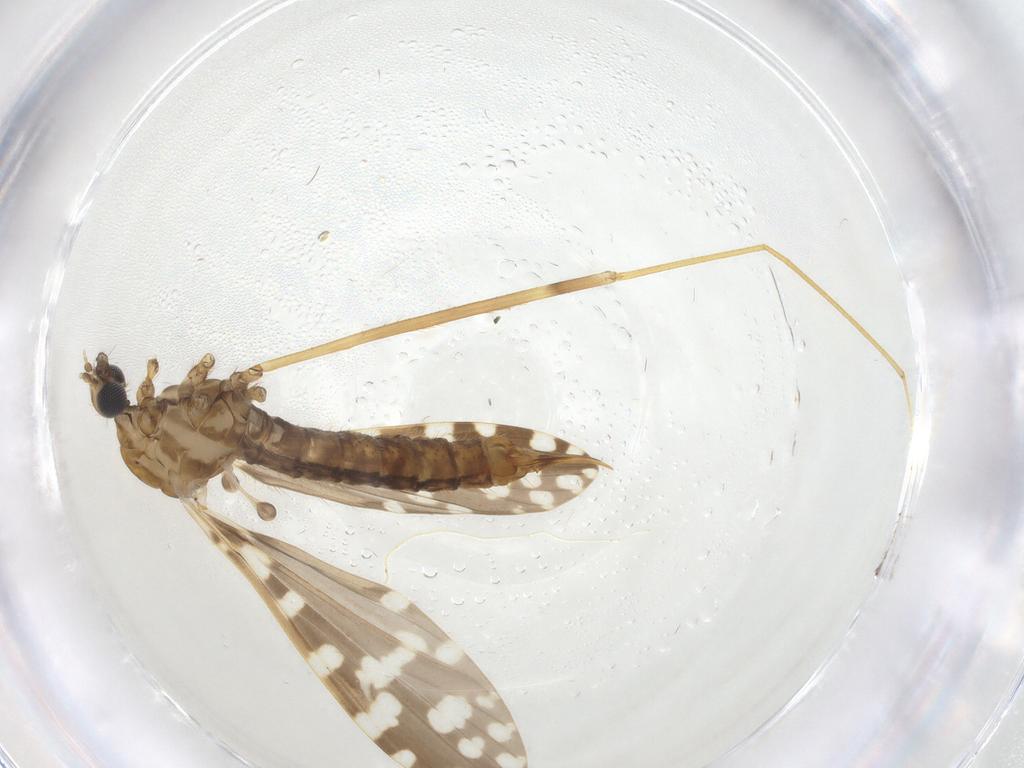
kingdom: Animalia
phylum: Arthropoda
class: Insecta
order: Diptera
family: Limoniidae
